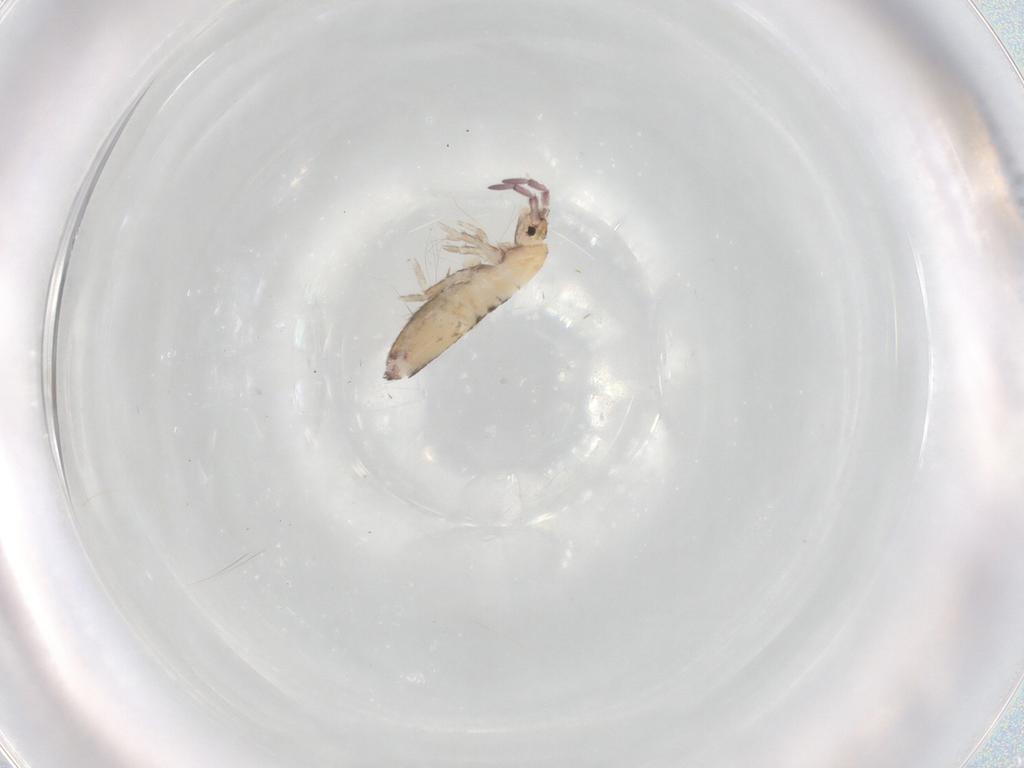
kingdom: Animalia
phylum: Arthropoda
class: Collembola
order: Entomobryomorpha
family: Entomobryidae
